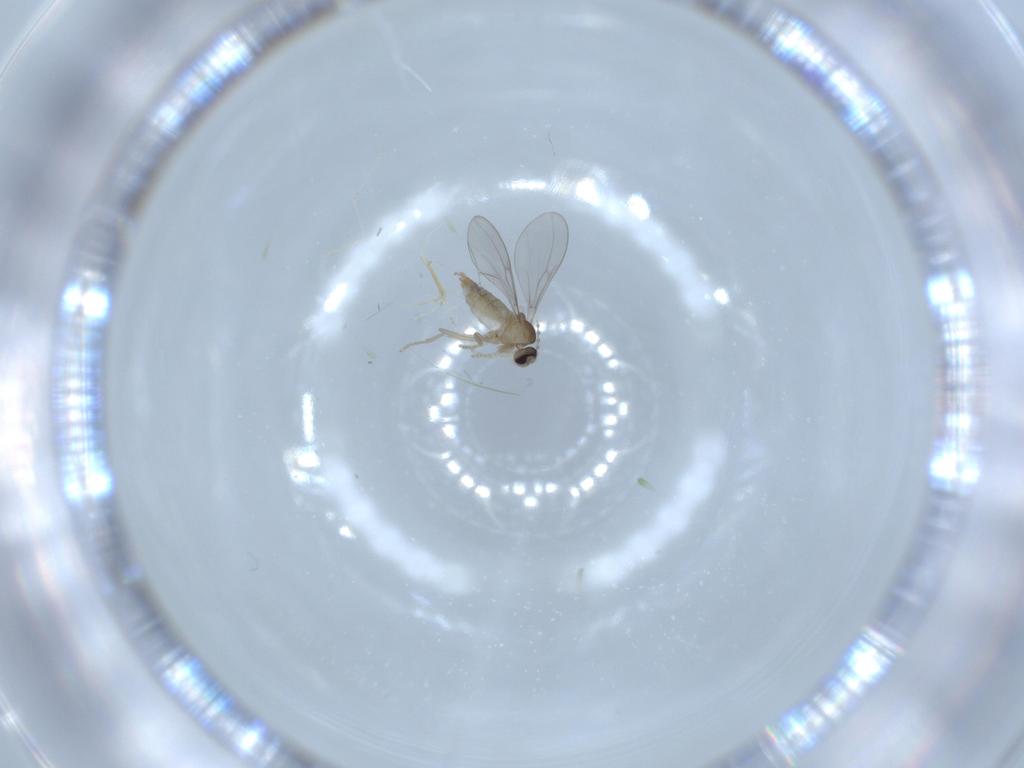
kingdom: Animalia
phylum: Arthropoda
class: Insecta
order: Diptera
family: Cecidomyiidae
